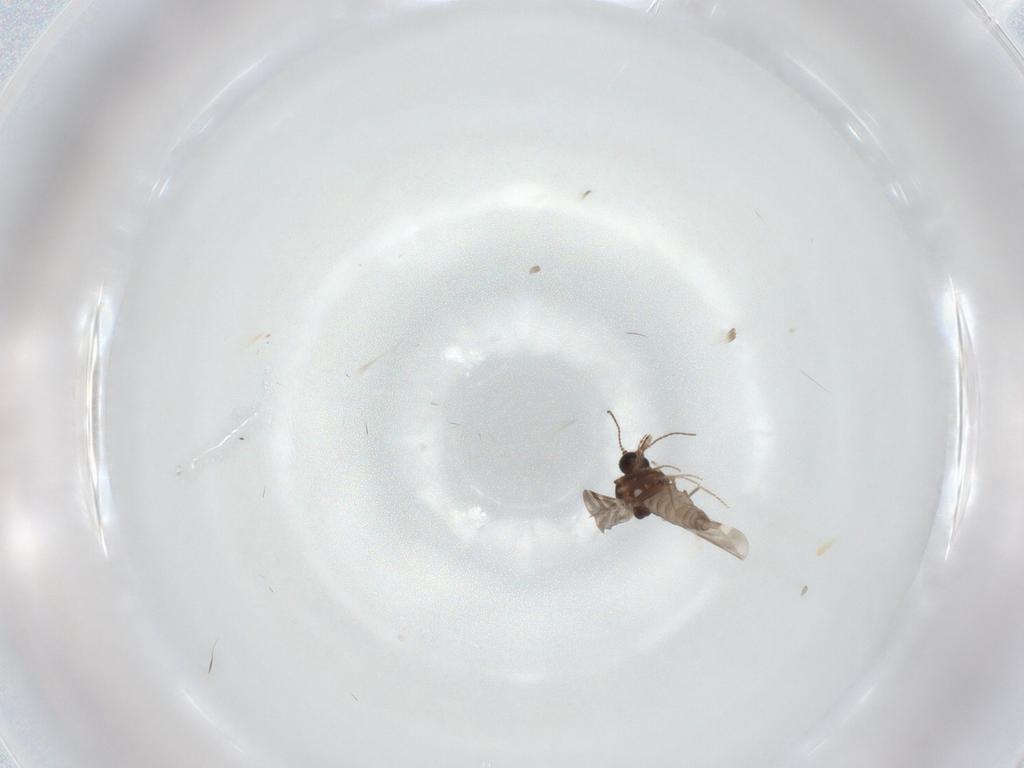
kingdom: Animalia
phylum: Arthropoda
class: Insecta
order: Diptera
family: Ceratopogonidae
